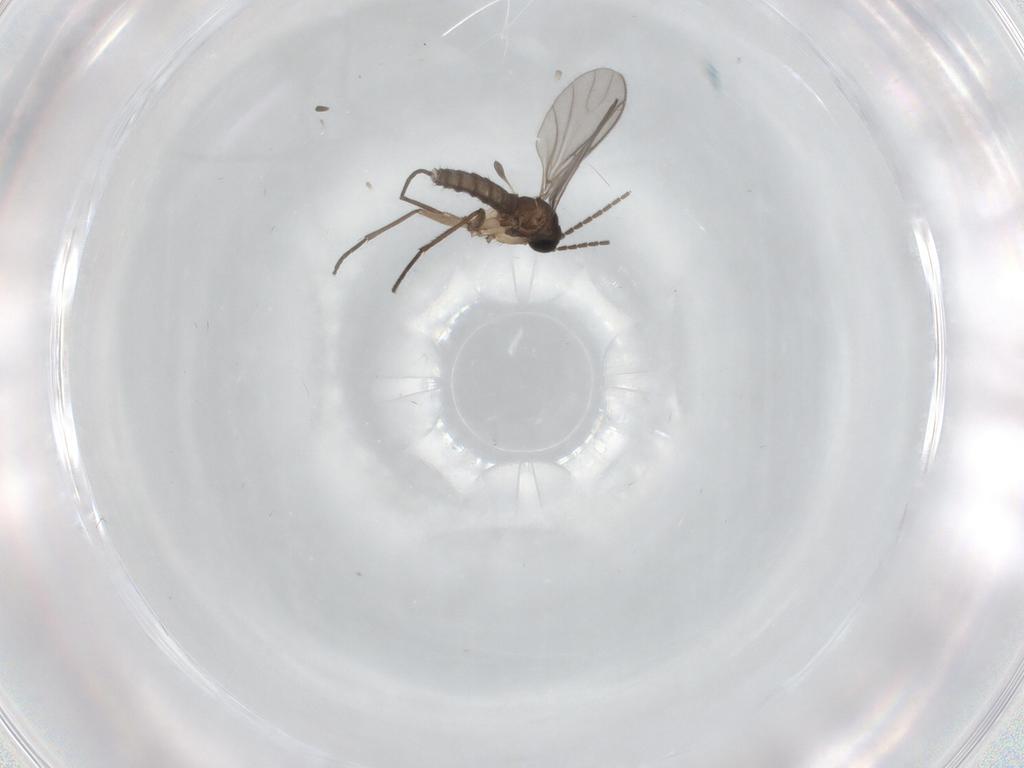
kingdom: Animalia
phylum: Arthropoda
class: Insecta
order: Diptera
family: Sciaridae
